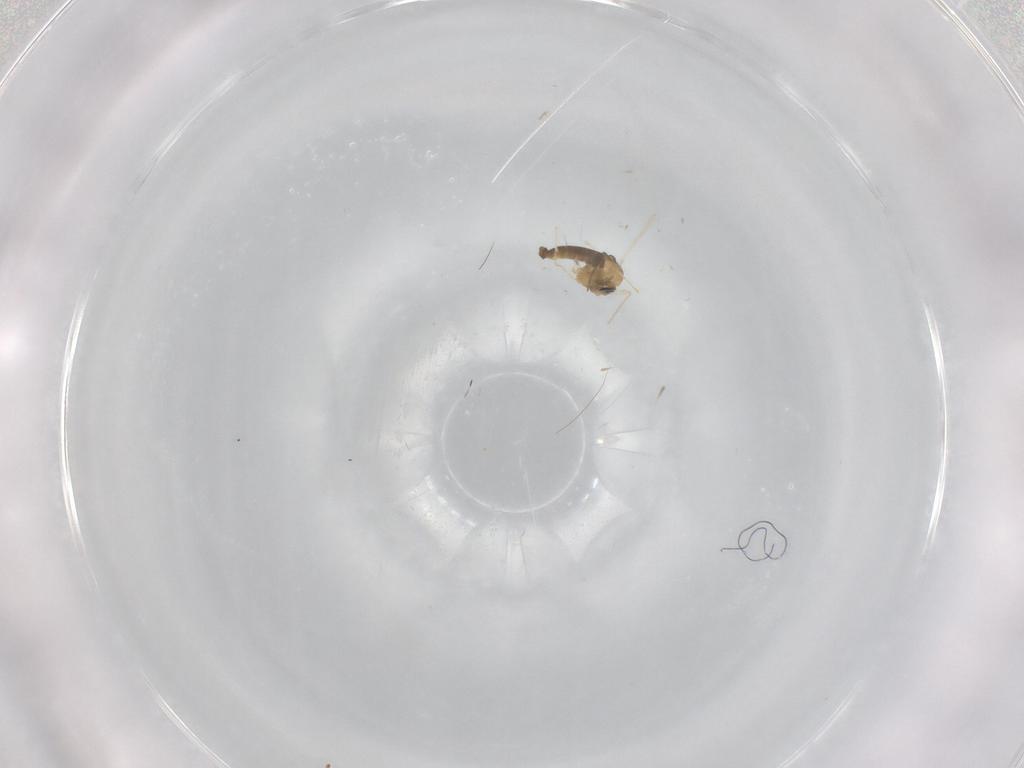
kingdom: Animalia
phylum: Arthropoda
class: Insecta
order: Diptera
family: Chironomidae
